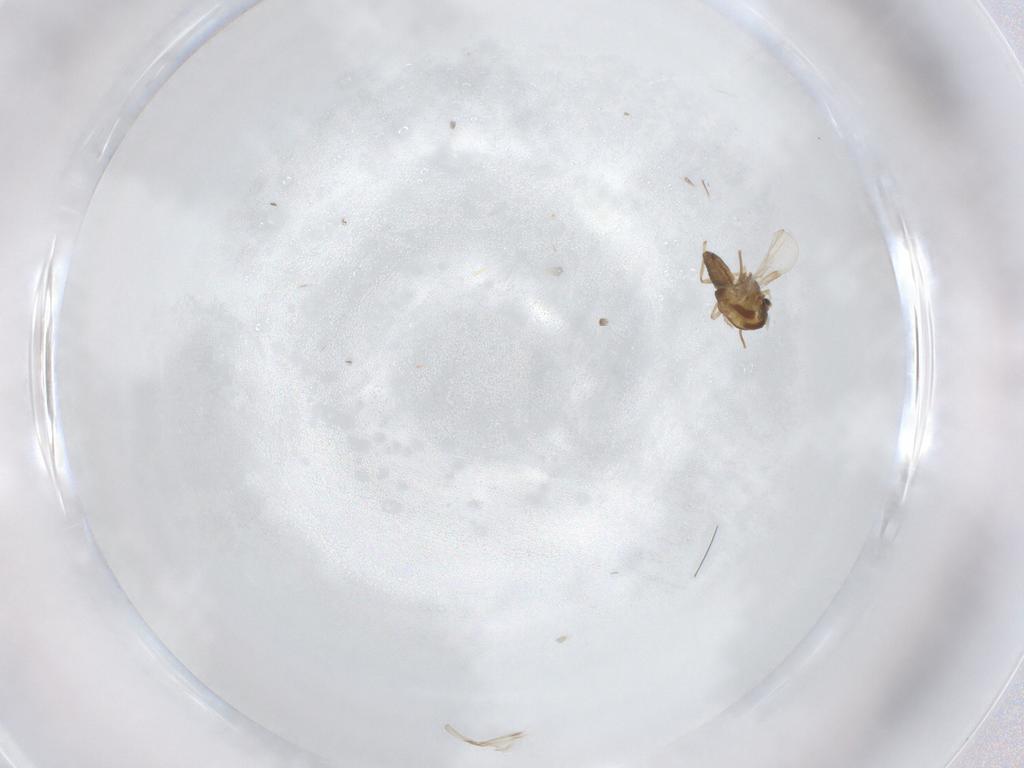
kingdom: Animalia
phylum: Arthropoda
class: Insecta
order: Diptera
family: Chironomidae
